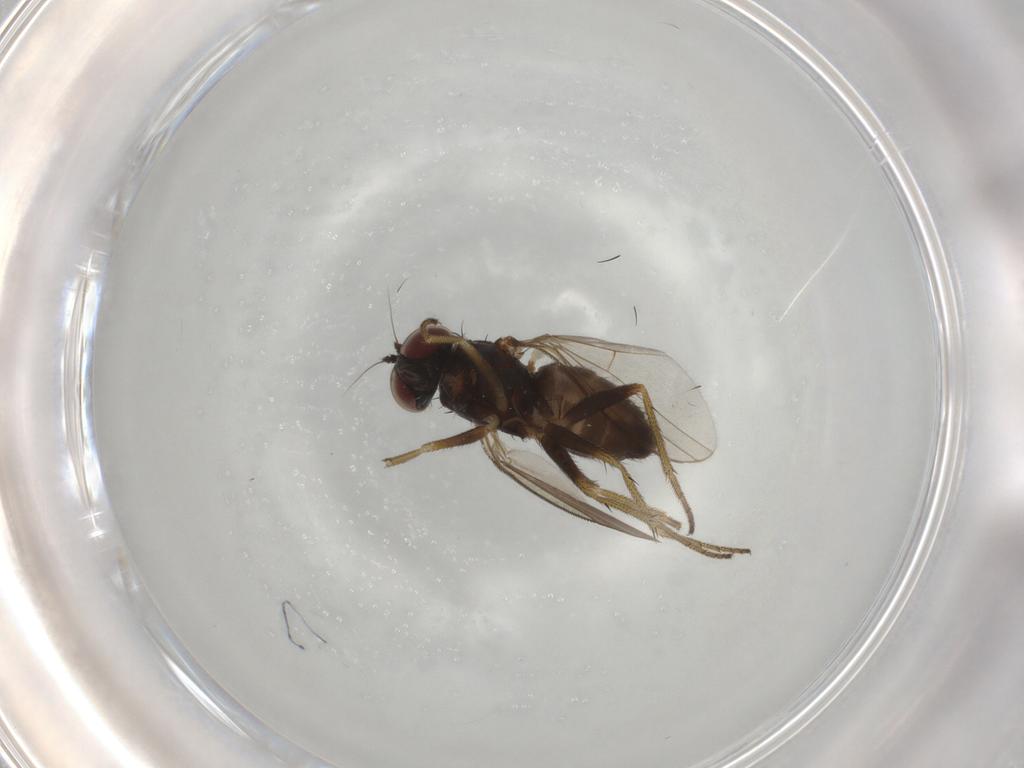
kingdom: Animalia
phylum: Arthropoda
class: Insecta
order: Diptera
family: Dolichopodidae
